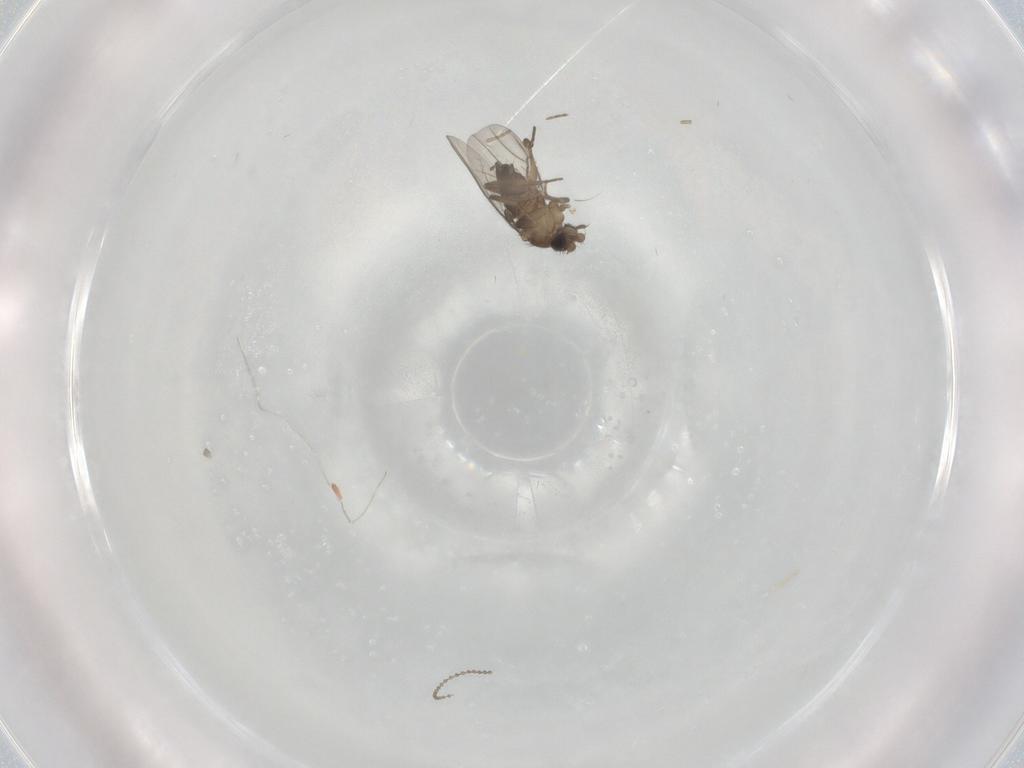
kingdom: Animalia
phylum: Arthropoda
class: Insecta
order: Diptera
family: Cecidomyiidae
